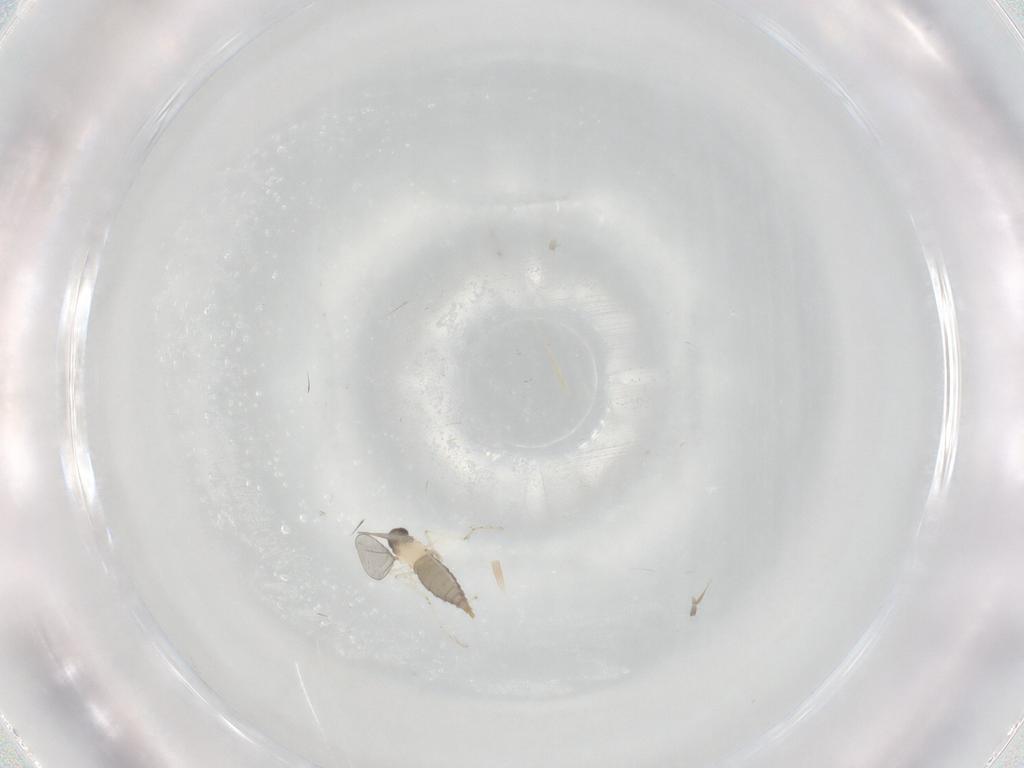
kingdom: Animalia
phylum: Arthropoda
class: Insecta
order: Diptera
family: Cecidomyiidae
